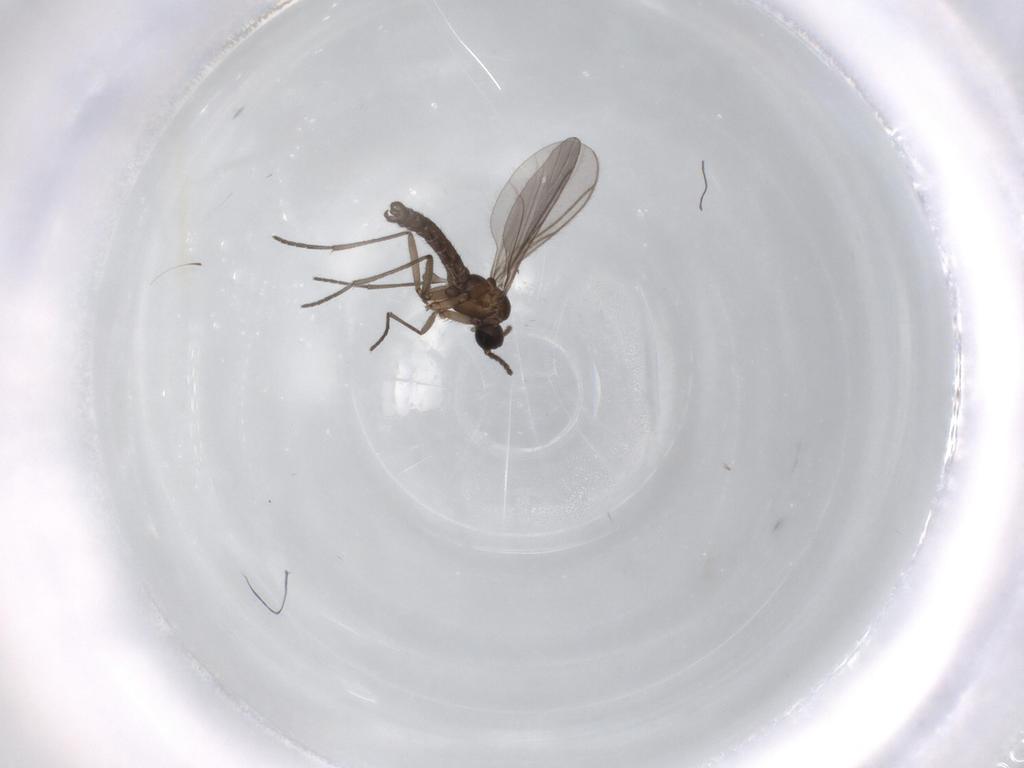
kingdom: Animalia
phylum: Arthropoda
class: Insecta
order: Diptera
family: Sciaridae
